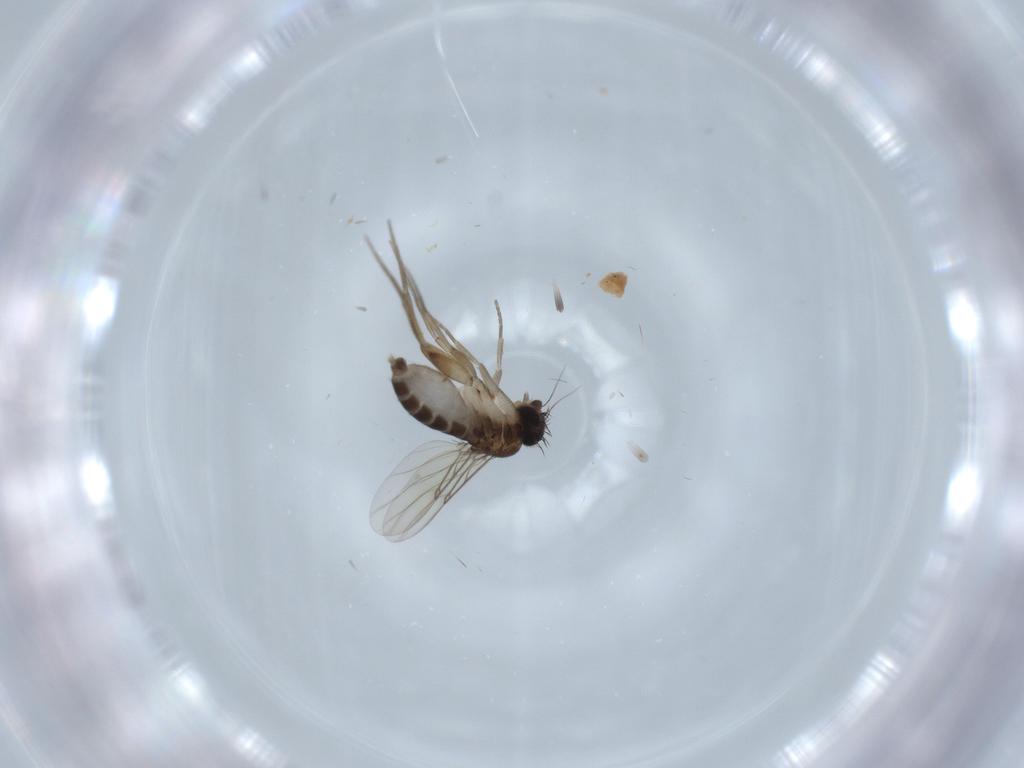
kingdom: Animalia
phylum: Arthropoda
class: Insecta
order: Diptera
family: Phoridae
